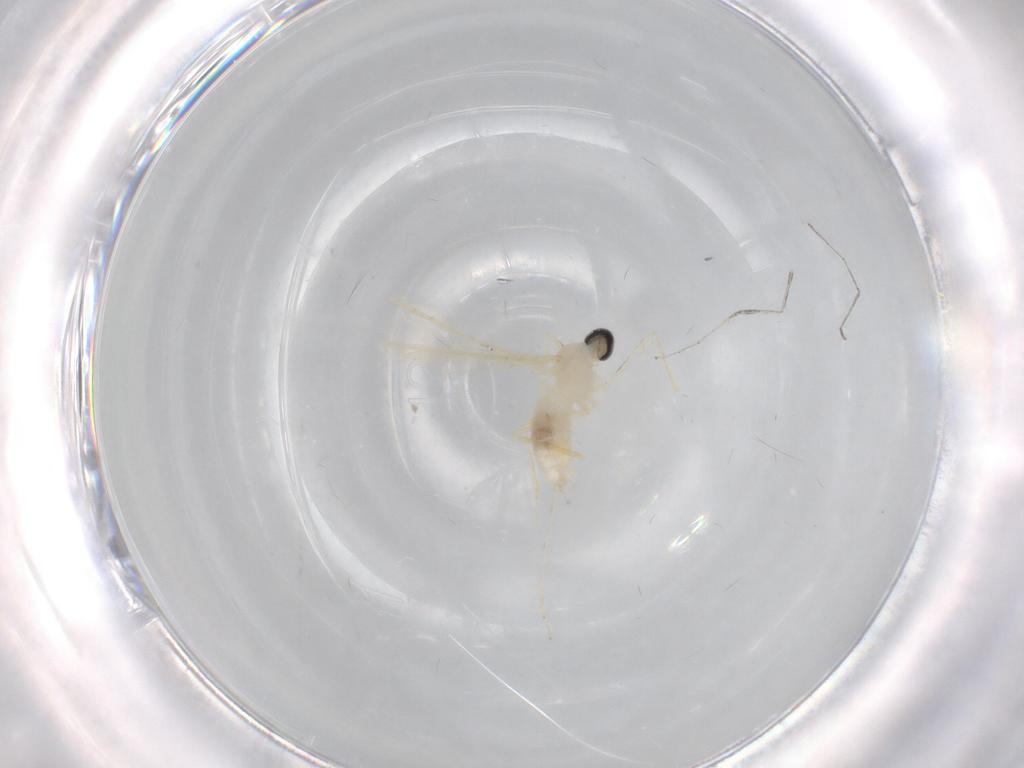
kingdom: Animalia
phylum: Arthropoda
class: Insecta
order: Diptera
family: Cecidomyiidae
